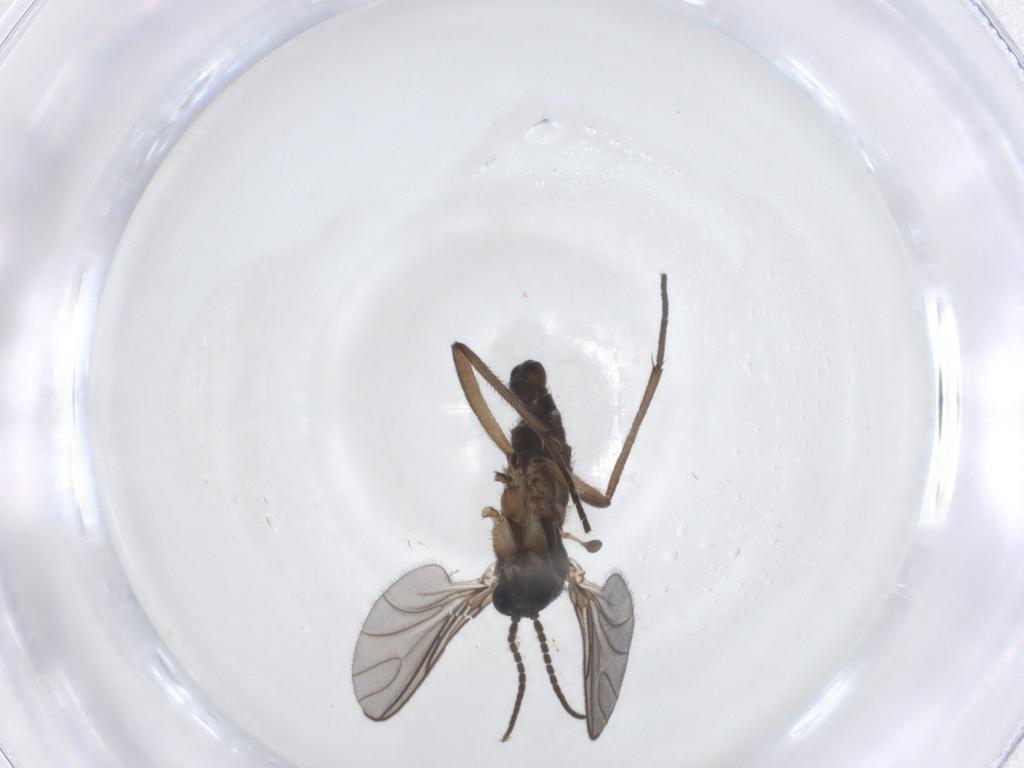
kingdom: Animalia
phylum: Arthropoda
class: Insecta
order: Diptera
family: Sciaridae
